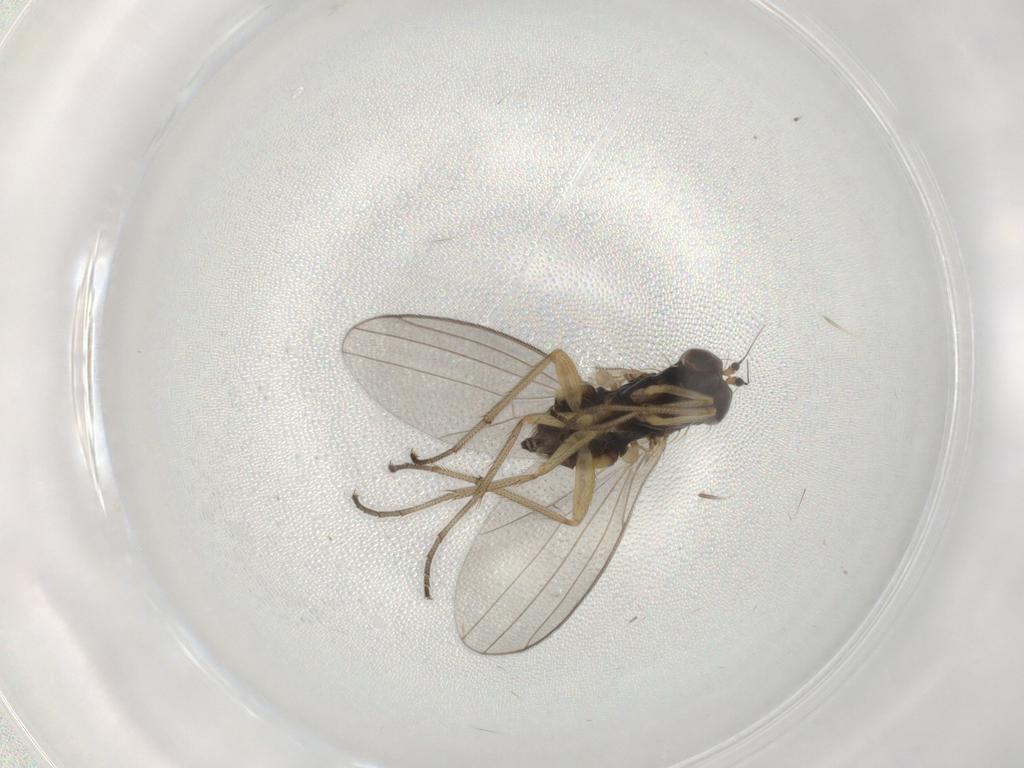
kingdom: Animalia
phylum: Arthropoda
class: Insecta
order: Diptera
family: Dolichopodidae
